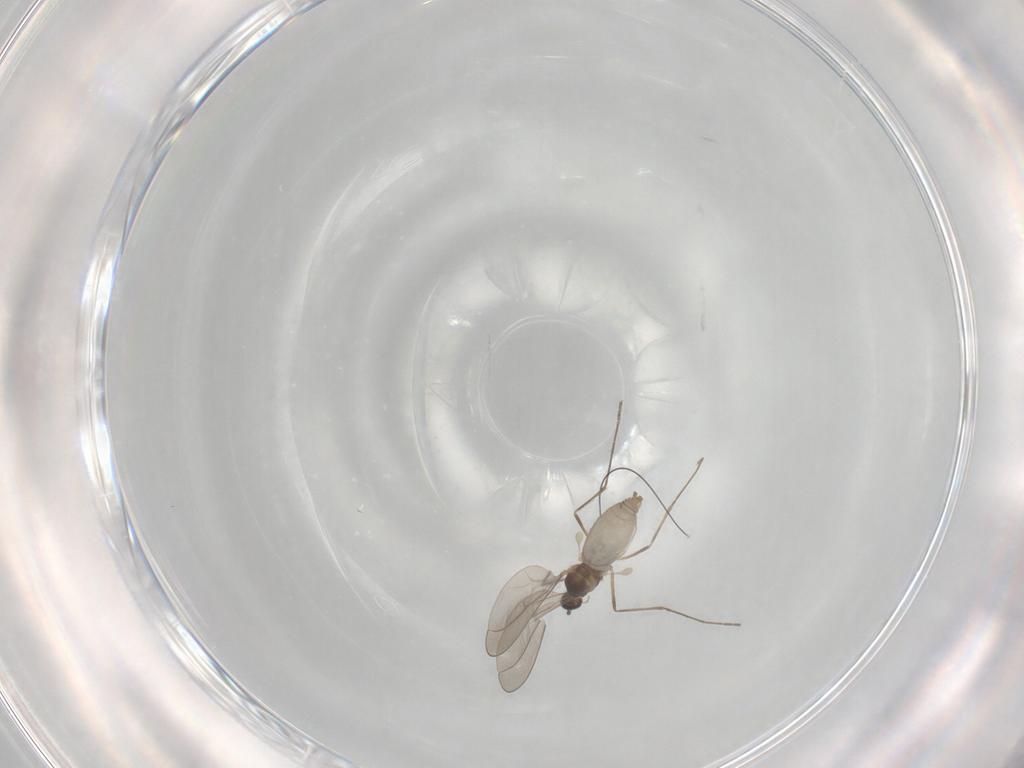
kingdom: Animalia
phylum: Arthropoda
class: Insecta
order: Diptera
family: Cecidomyiidae
